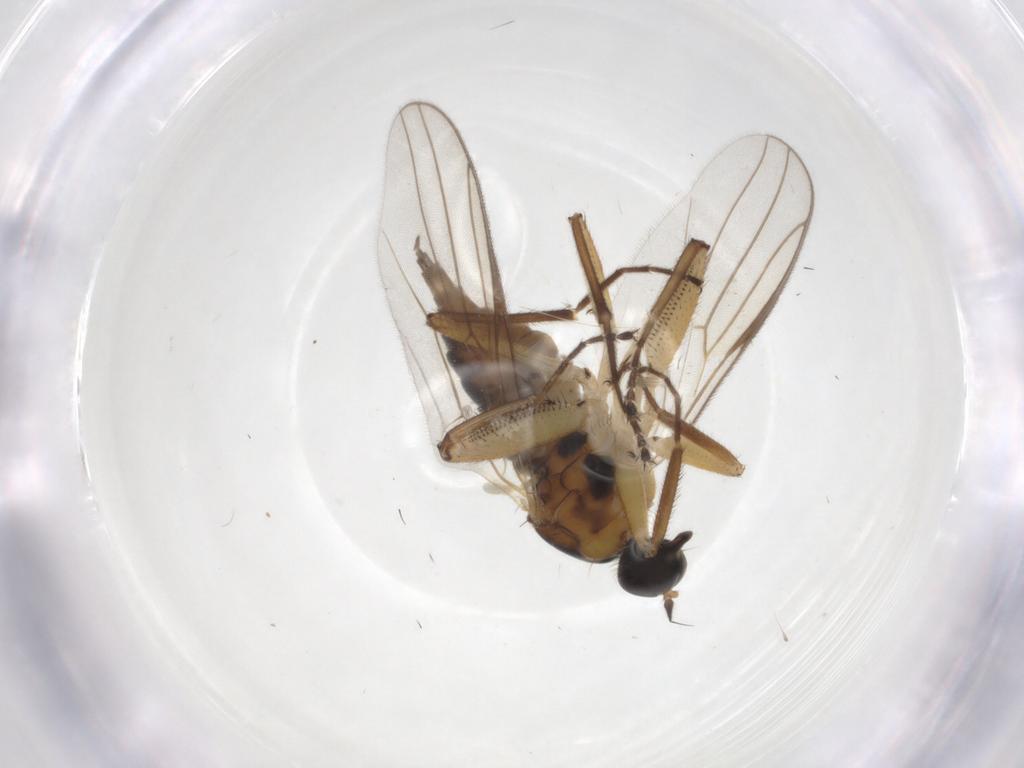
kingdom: Animalia
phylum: Arthropoda
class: Insecta
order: Diptera
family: Hybotidae
